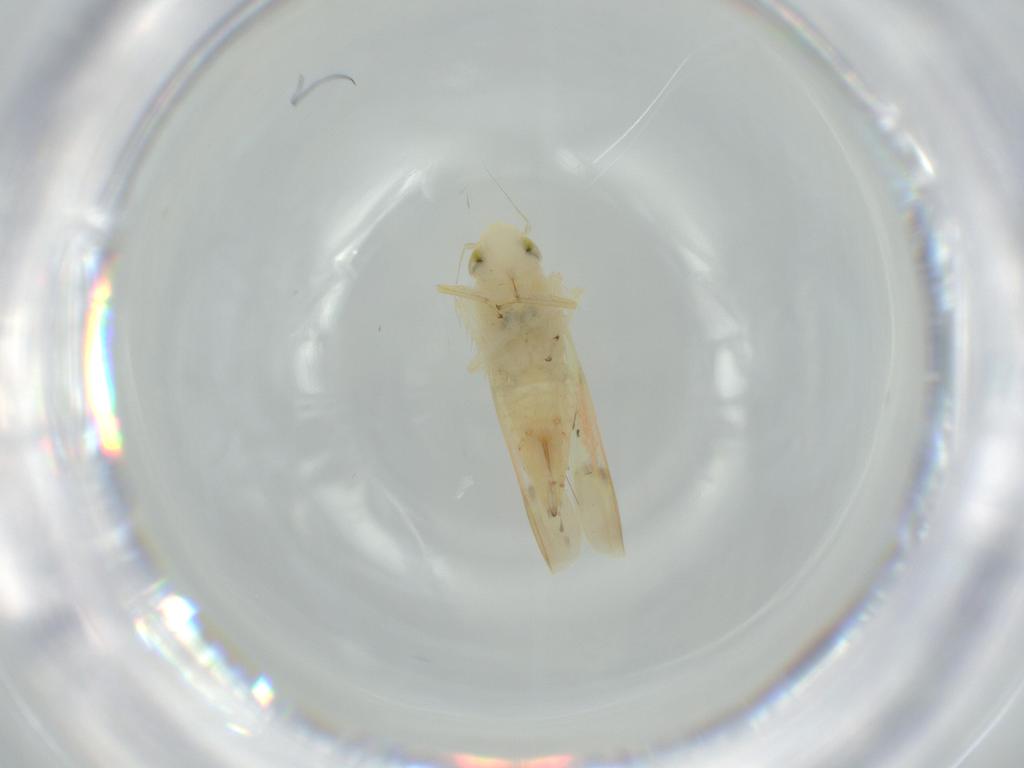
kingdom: Animalia
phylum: Arthropoda
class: Insecta
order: Hemiptera
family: Cicadellidae
